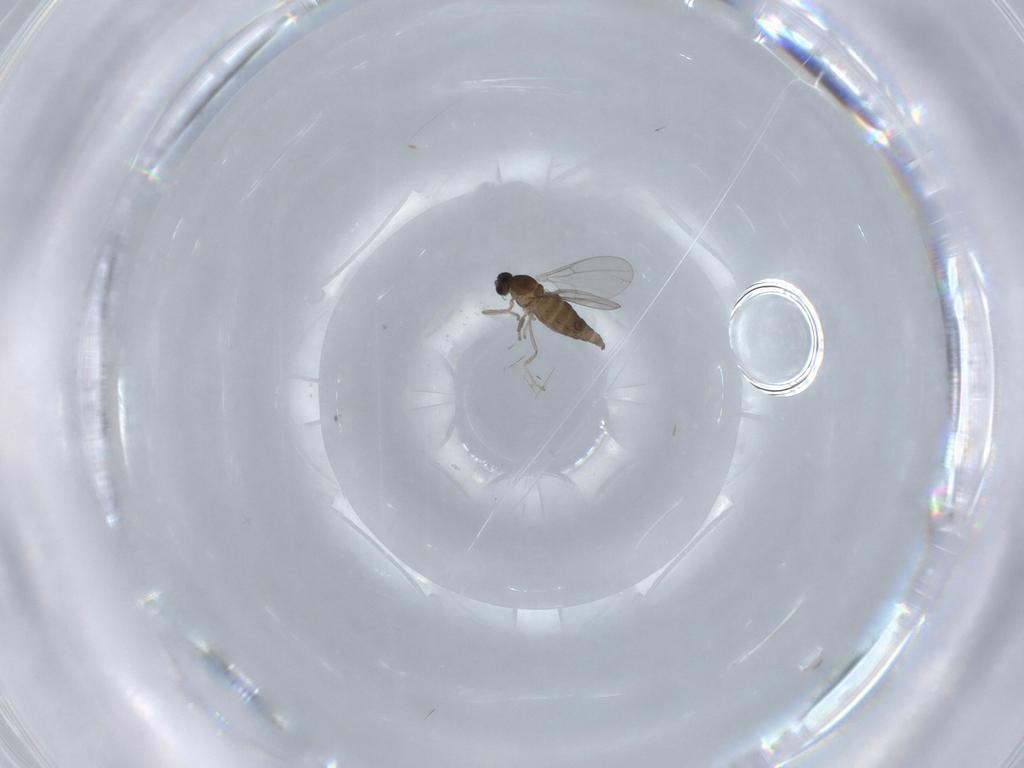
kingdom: Animalia
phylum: Arthropoda
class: Insecta
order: Diptera
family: Cecidomyiidae
